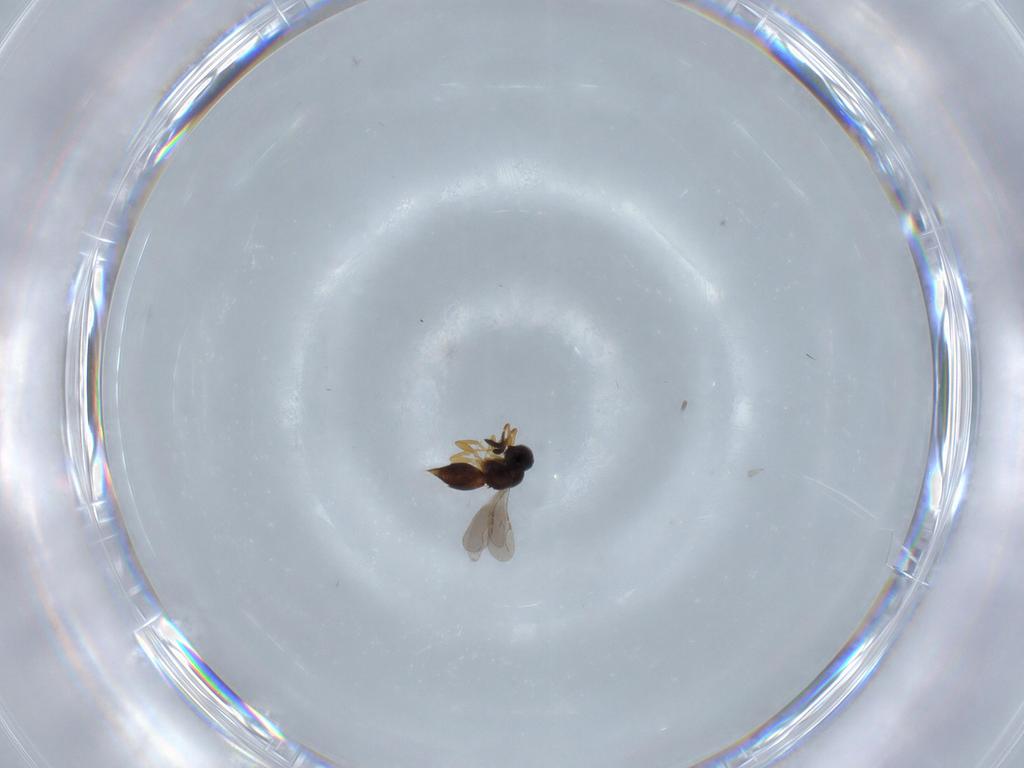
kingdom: Animalia
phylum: Arthropoda
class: Insecta
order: Hymenoptera
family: Ceraphronidae
